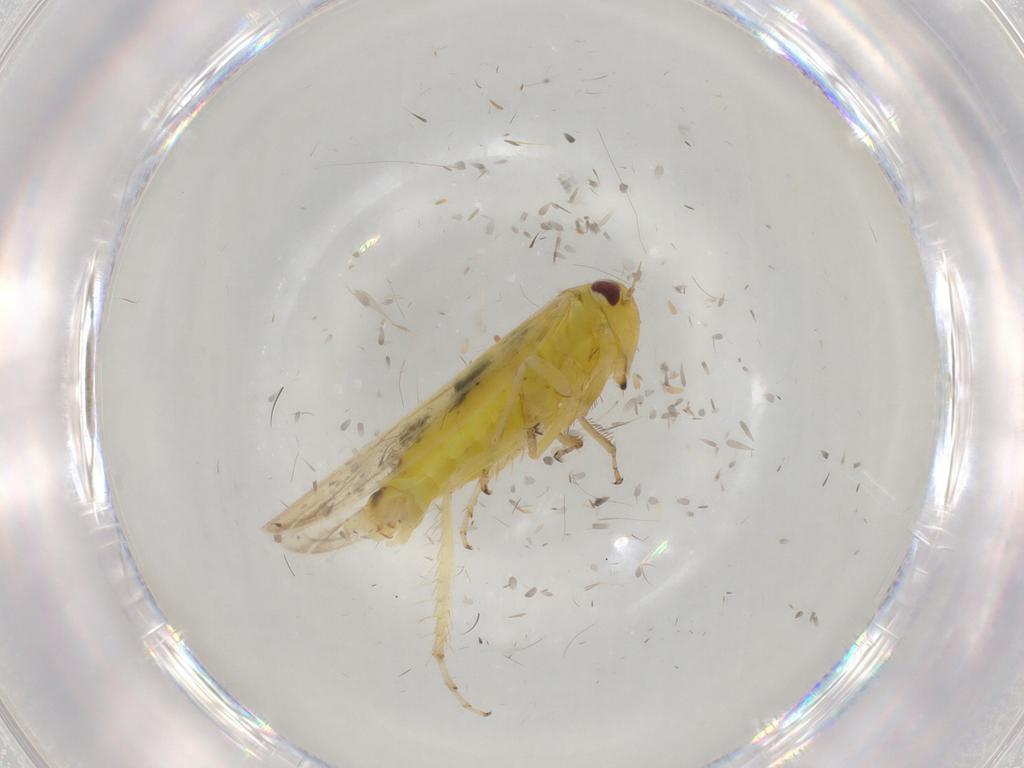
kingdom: Animalia
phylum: Arthropoda
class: Insecta
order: Hemiptera
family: Cicadellidae
